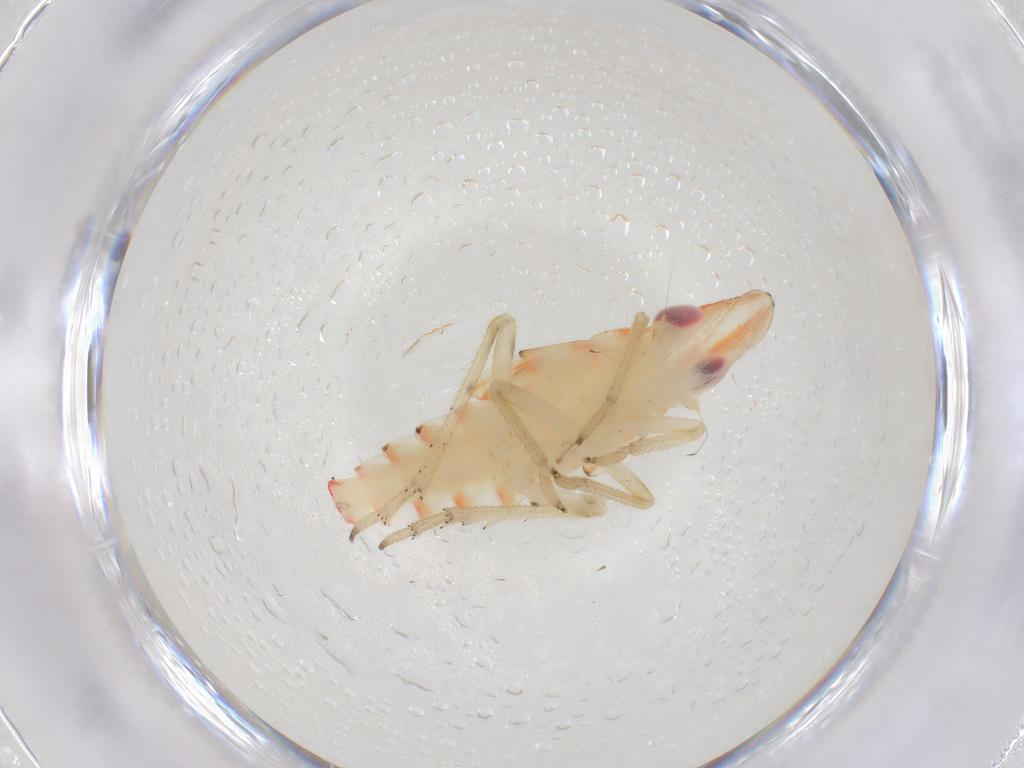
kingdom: Animalia
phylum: Arthropoda
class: Insecta
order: Hemiptera
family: Tropiduchidae
